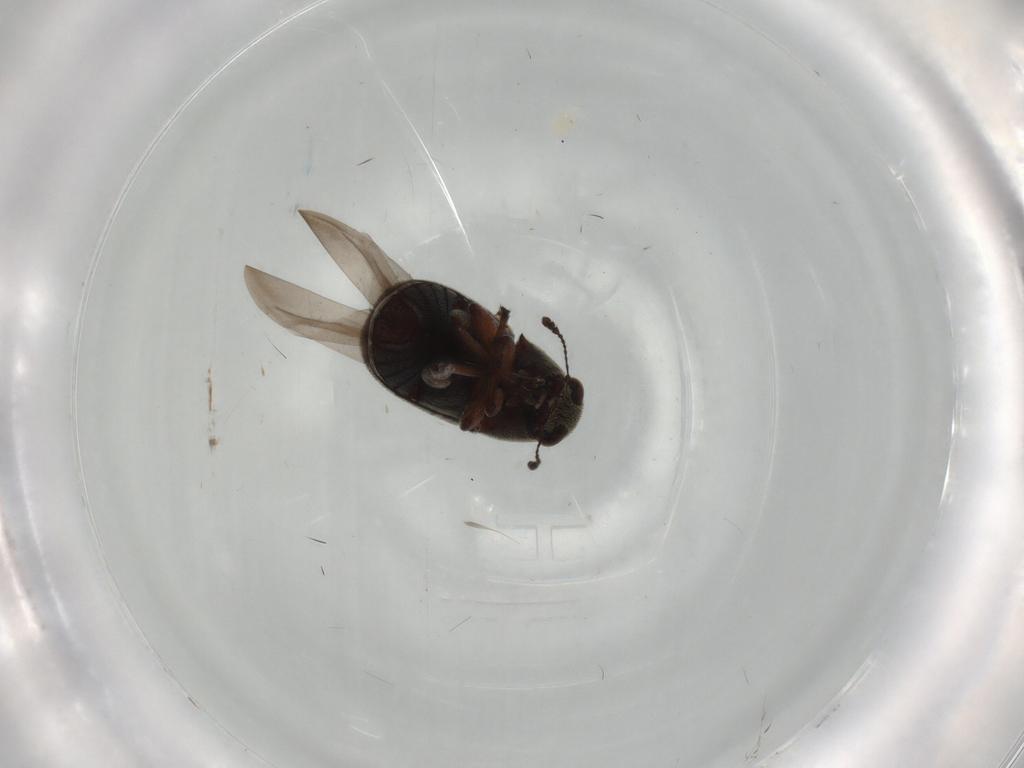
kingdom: Animalia
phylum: Arthropoda
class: Insecta
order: Coleoptera
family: Anthribidae
